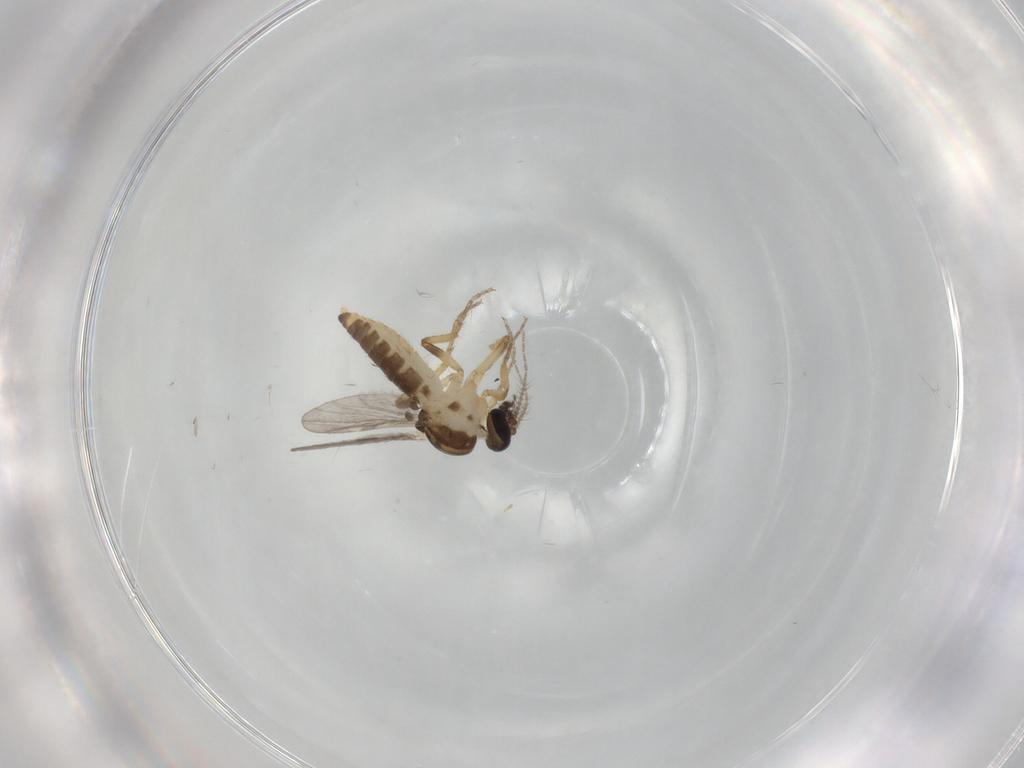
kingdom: Animalia
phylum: Arthropoda
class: Insecta
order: Diptera
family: Ceratopogonidae
